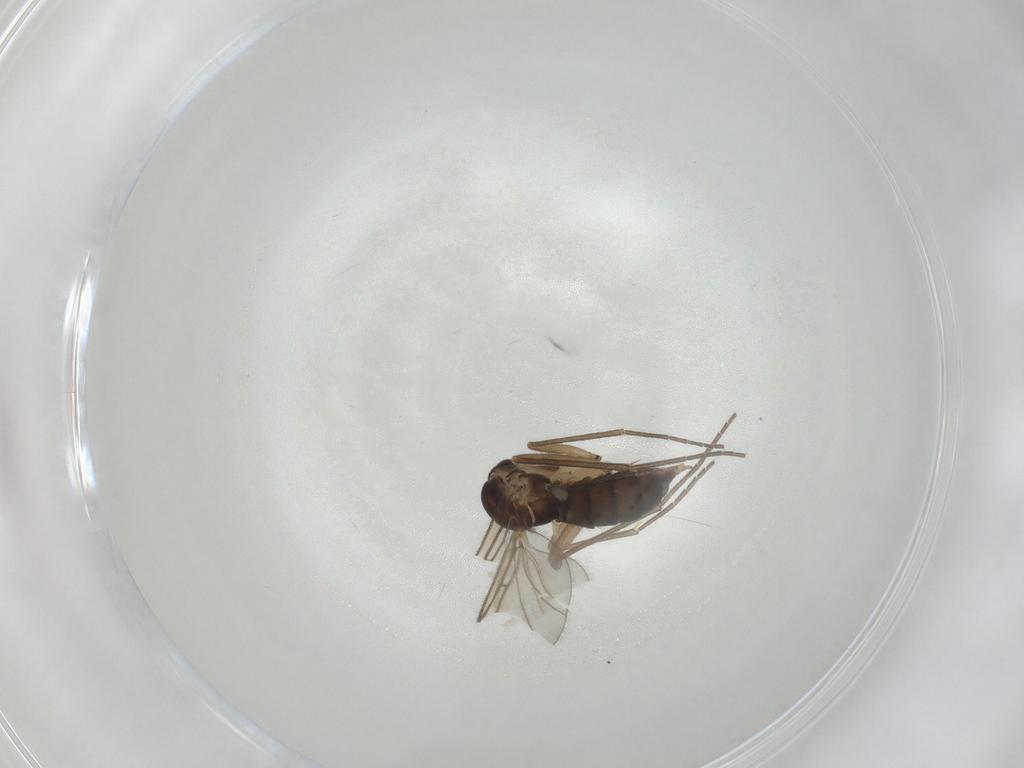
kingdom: Animalia
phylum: Arthropoda
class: Insecta
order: Diptera
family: Sciaridae
